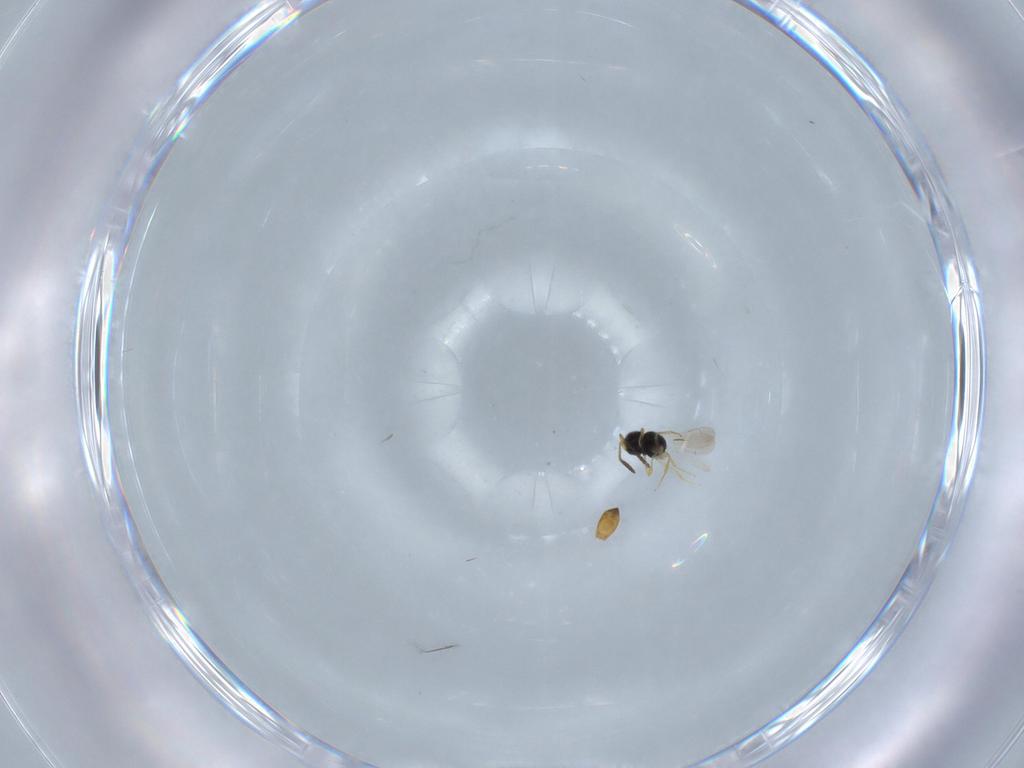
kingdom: Animalia
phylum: Arthropoda
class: Insecta
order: Hymenoptera
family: Scelionidae
